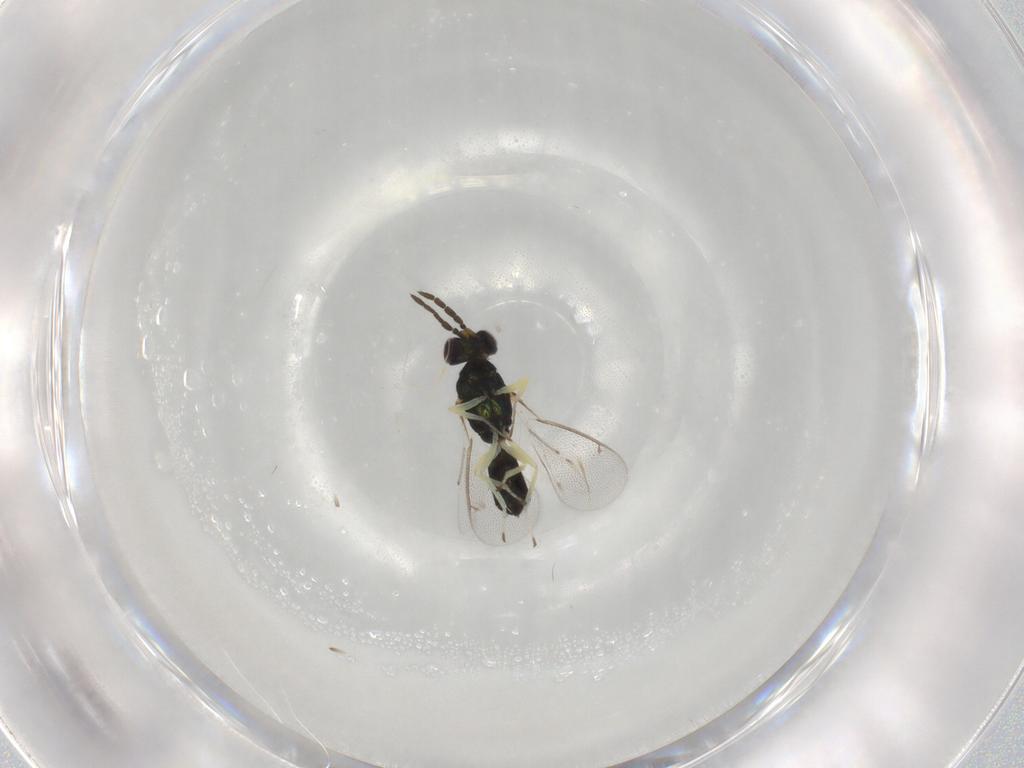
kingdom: Animalia
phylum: Arthropoda
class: Insecta
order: Hymenoptera
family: Eulophidae
